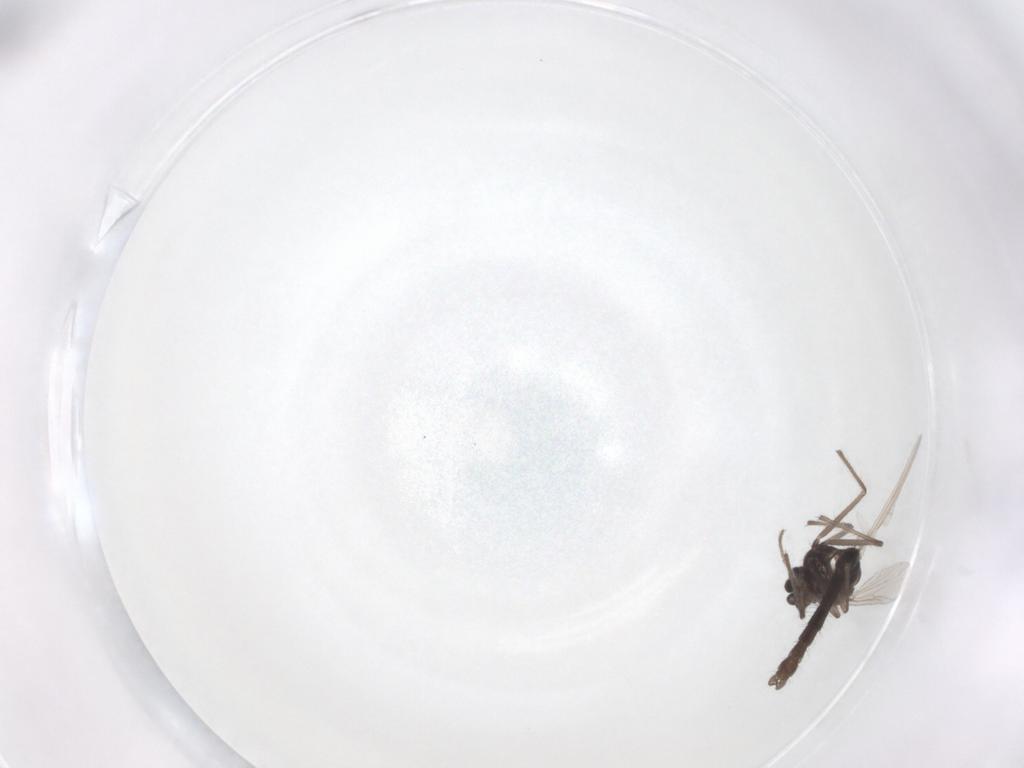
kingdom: Animalia
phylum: Arthropoda
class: Insecta
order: Diptera
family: Chironomidae
